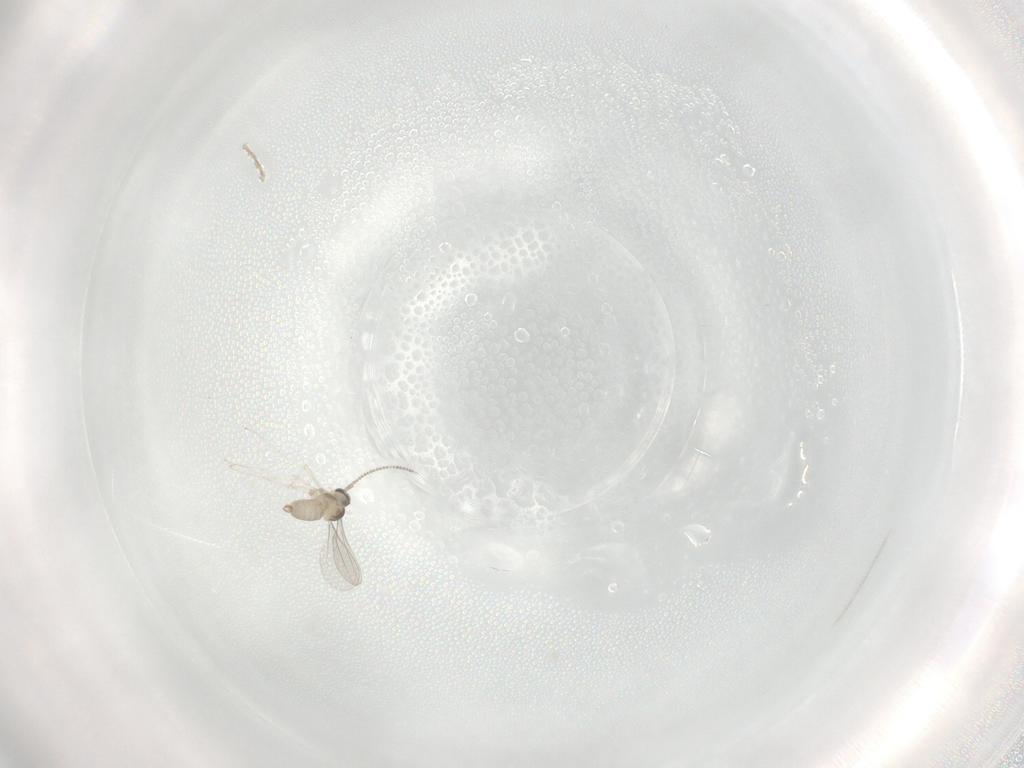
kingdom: Animalia
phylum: Arthropoda
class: Insecta
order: Diptera
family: Cecidomyiidae
